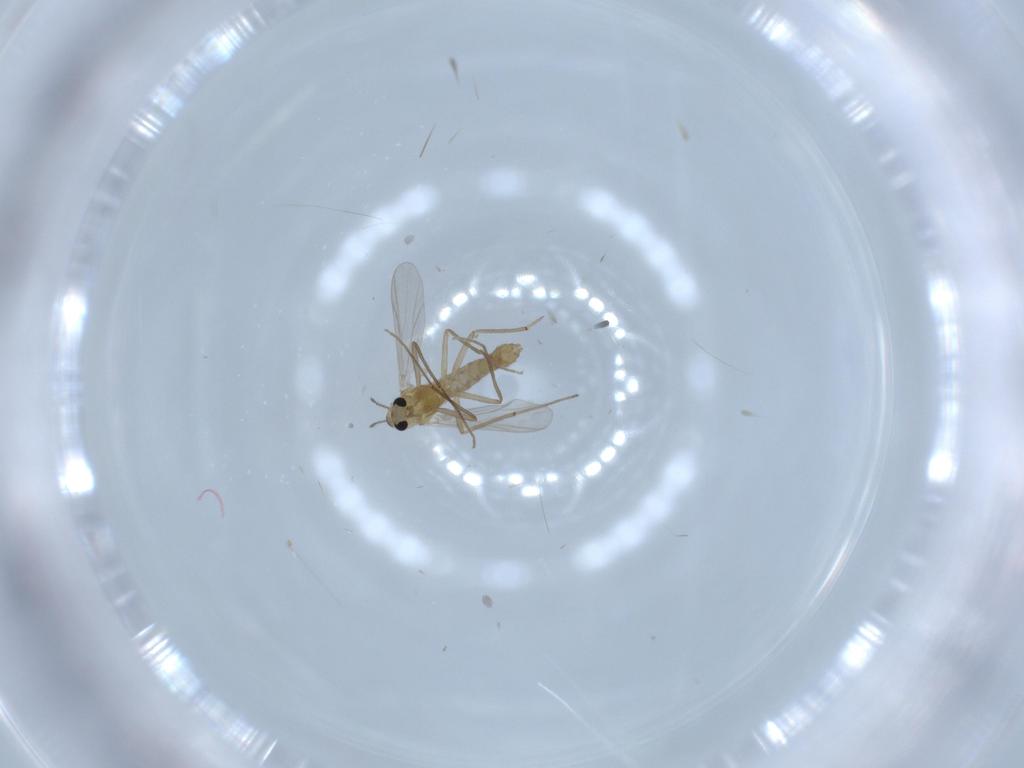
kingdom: Animalia
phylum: Arthropoda
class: Insecta
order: Diptera
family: Chironomidae
